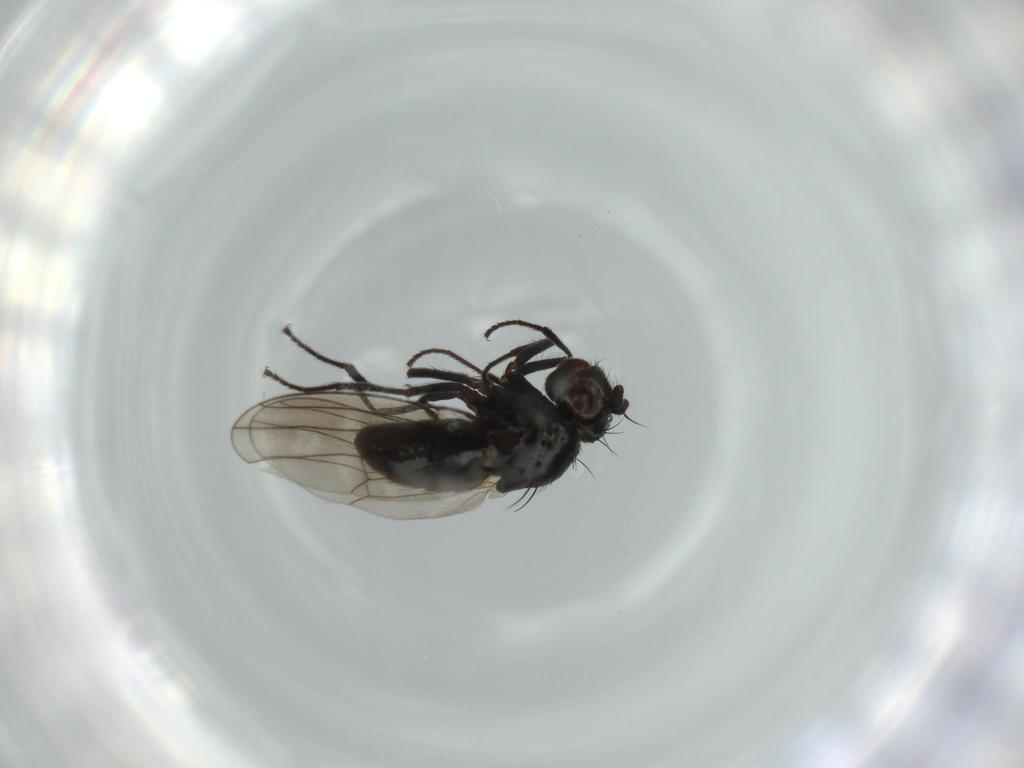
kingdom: Animalia
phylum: Arthropoda
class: Insecta
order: Diptera
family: Ephydridae
